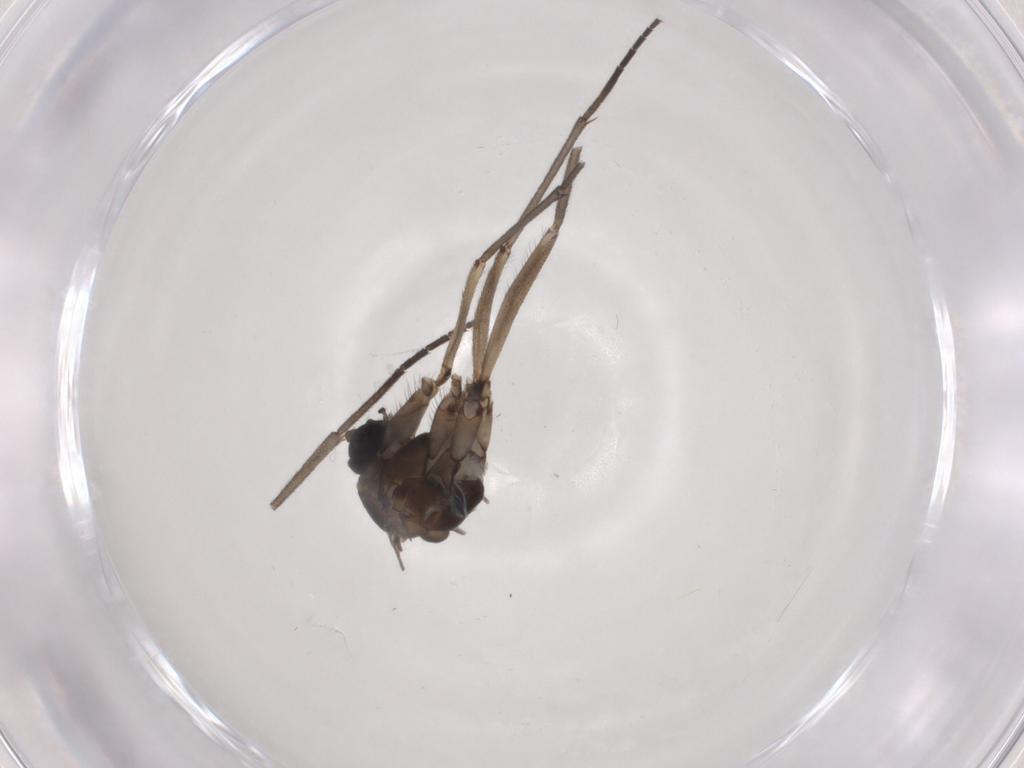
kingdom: Animalia
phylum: Arthropoda
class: Insecta
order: Diptera
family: Sciaridae
